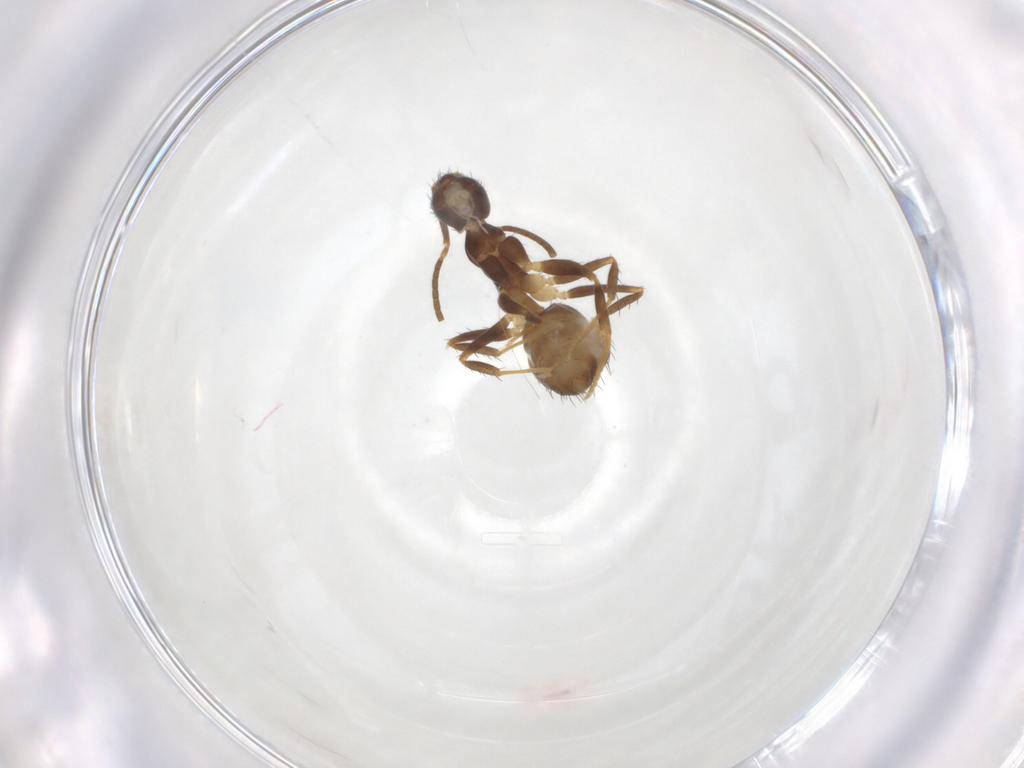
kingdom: Animalia
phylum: Arthropoda
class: Insecta
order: Hymenoptera
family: Formicidae
